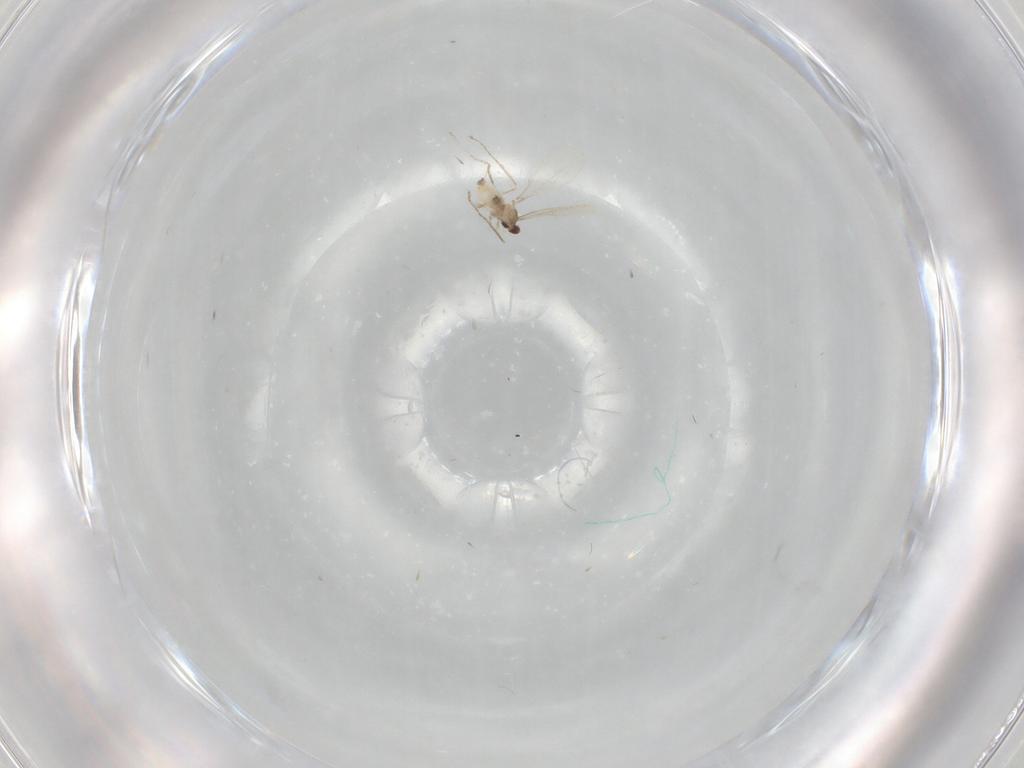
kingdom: Animalia
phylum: Arthropoda
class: Insecta
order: Diptera
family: Cecidomyiidae
